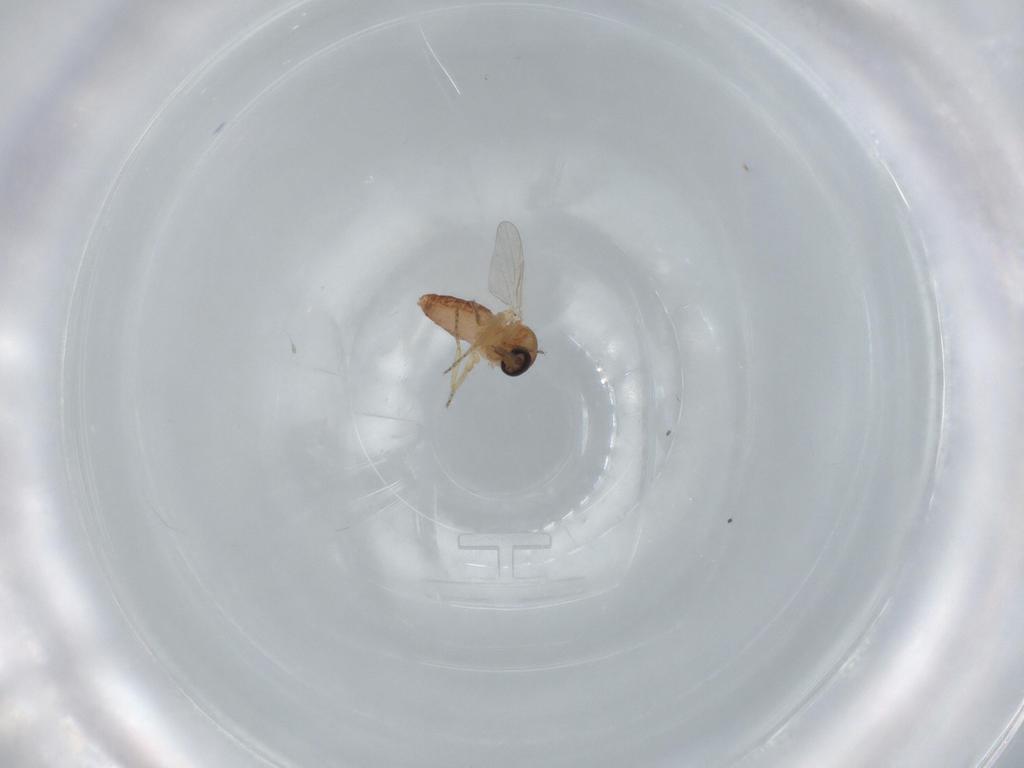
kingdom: Animalia
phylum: Arthropoda
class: Insecta
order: Diptera
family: Ceratopogonidae
